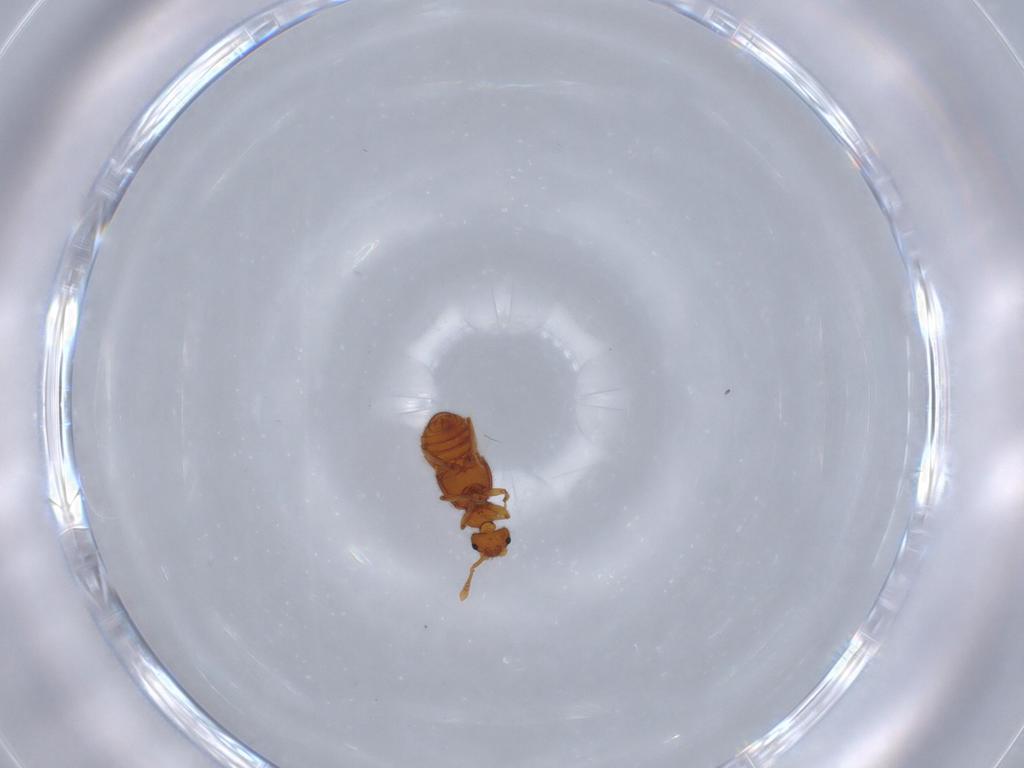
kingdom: Animalia
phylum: Arthropoda
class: Insecta
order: Coleoptera
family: Staphylinidae
